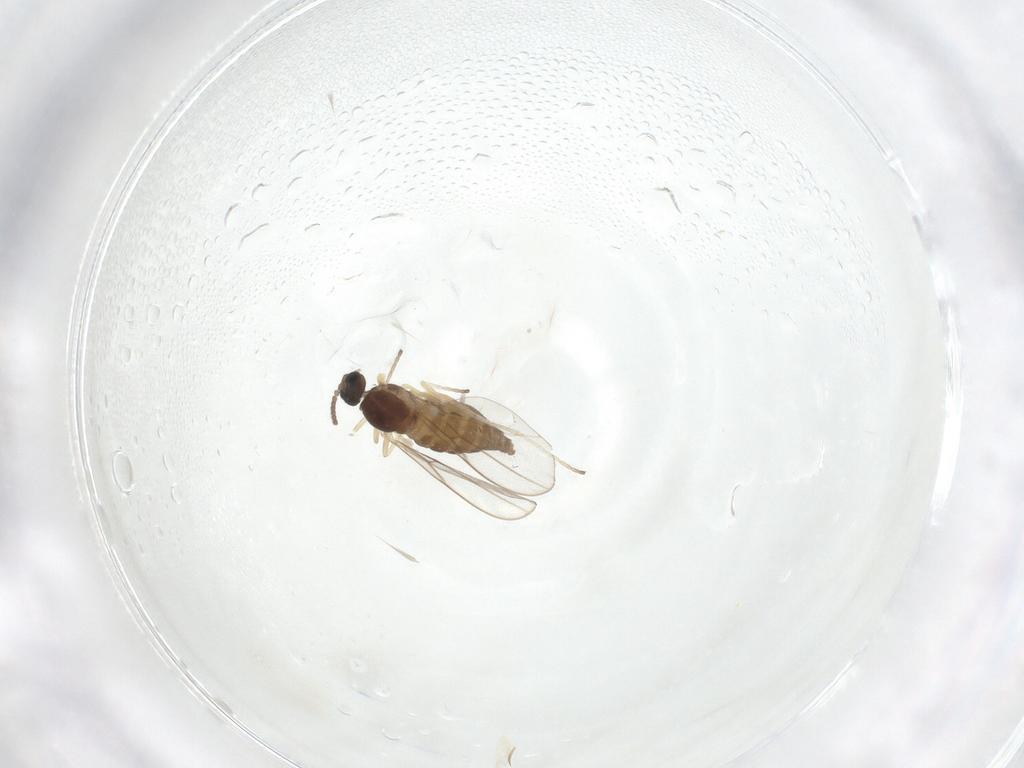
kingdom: Animalia
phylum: Arthropoda
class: Insecta
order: Diptera
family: Cecidomyiidae
